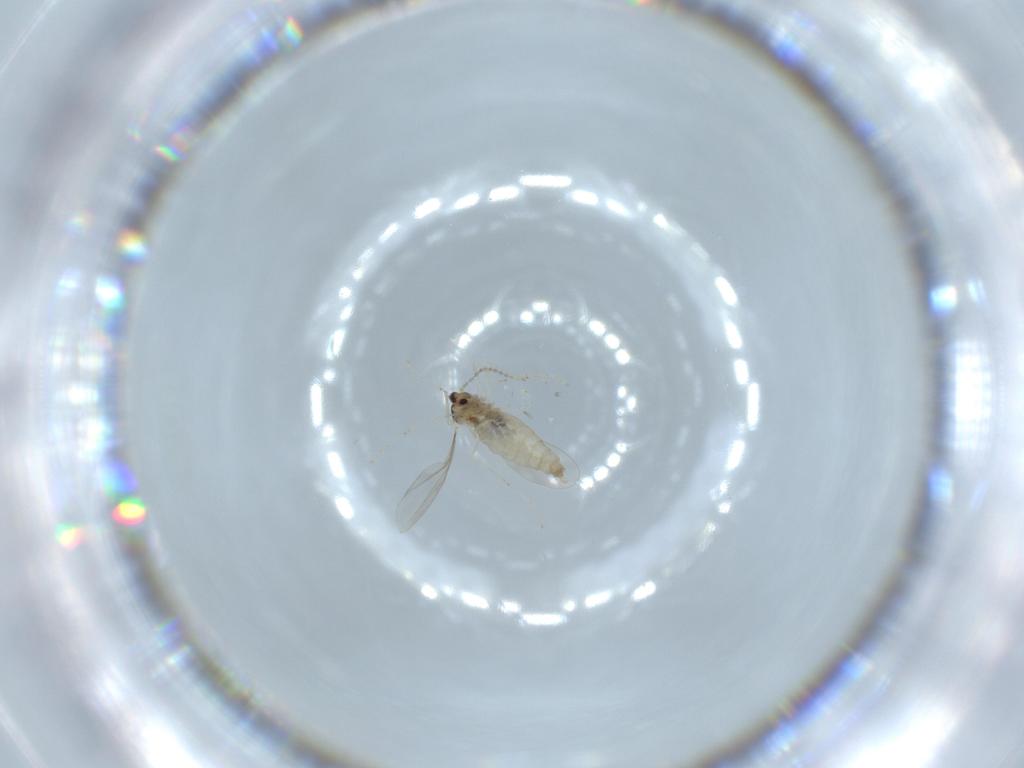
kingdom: Animalia
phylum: Arthropoda
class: Insecta
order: Diptera
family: Cecidomyiidae
